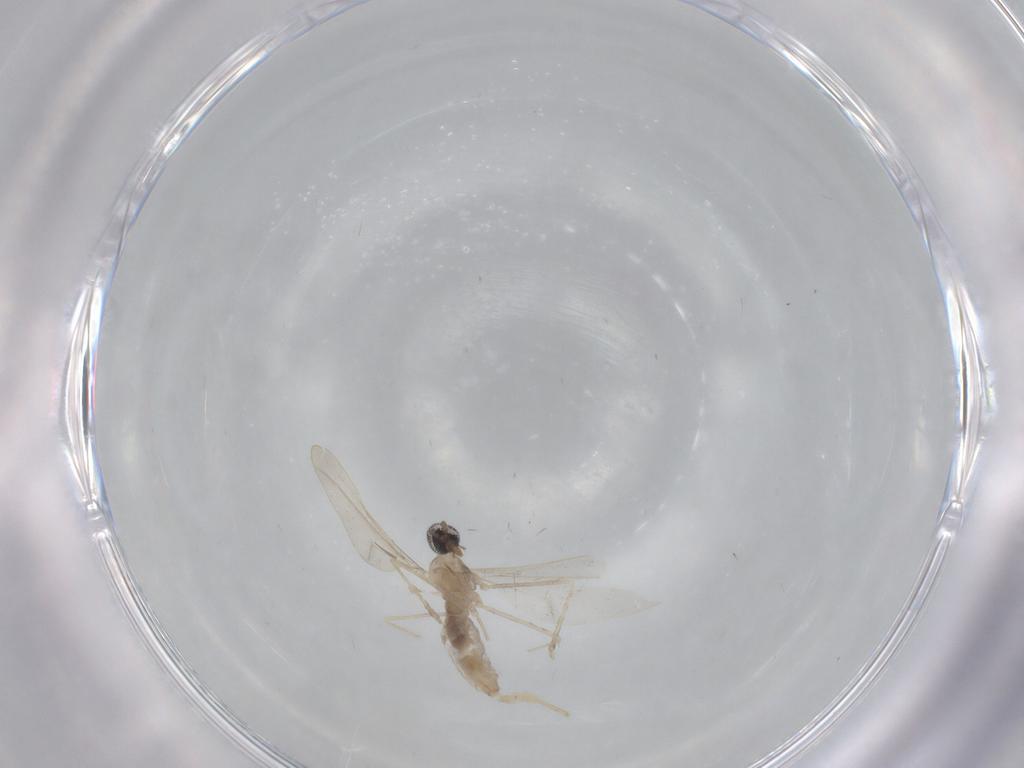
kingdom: Animalia
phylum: Arthropoda
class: Insecta
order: Diptera
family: Cecidomyiidae
